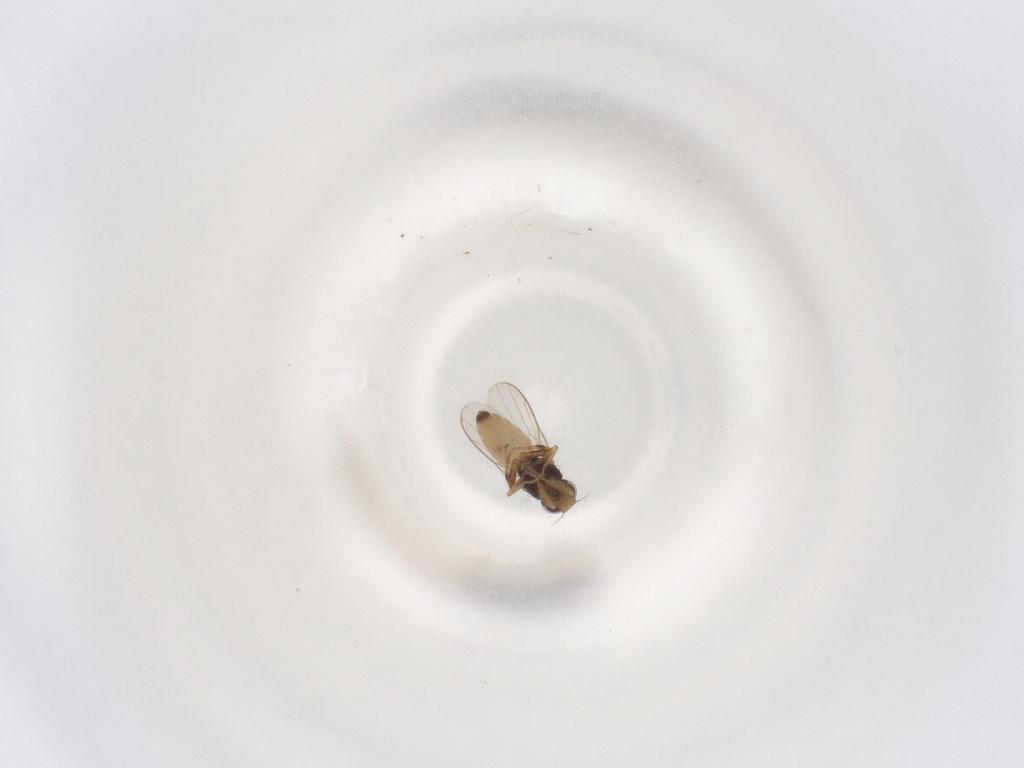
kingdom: Animalia
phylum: Arthropoda
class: Insecta
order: Diptera
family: Chloropidae
